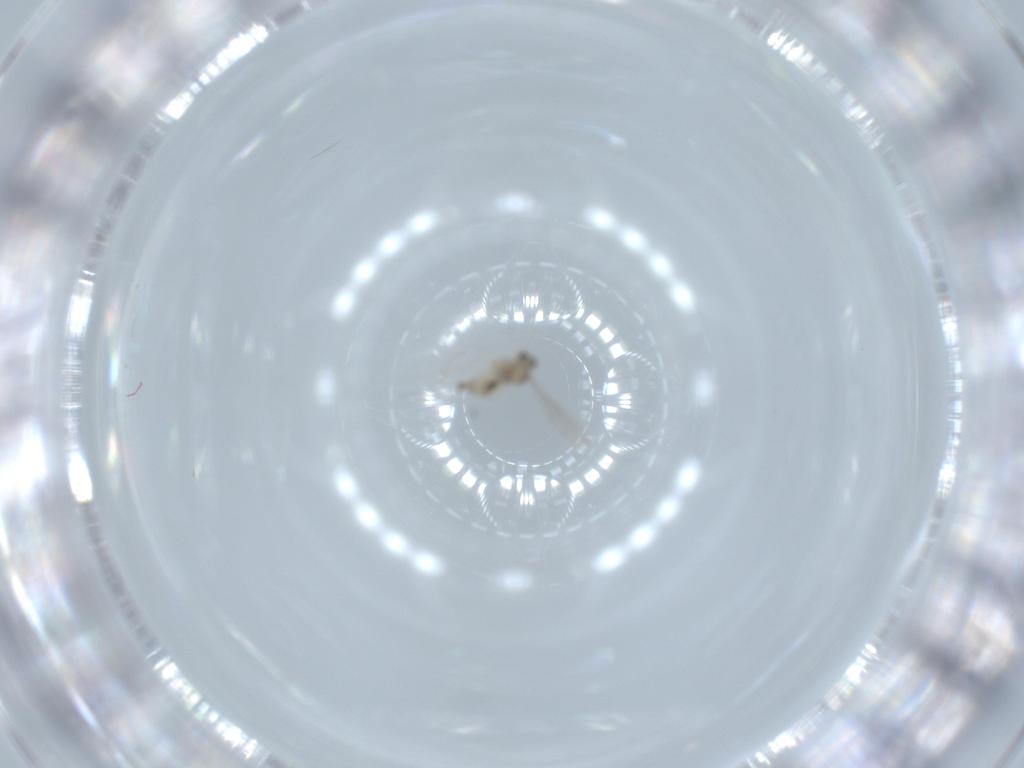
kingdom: Animalia
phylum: Arthropoda
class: Insecta
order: Diptera
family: Cecidomyiidae
